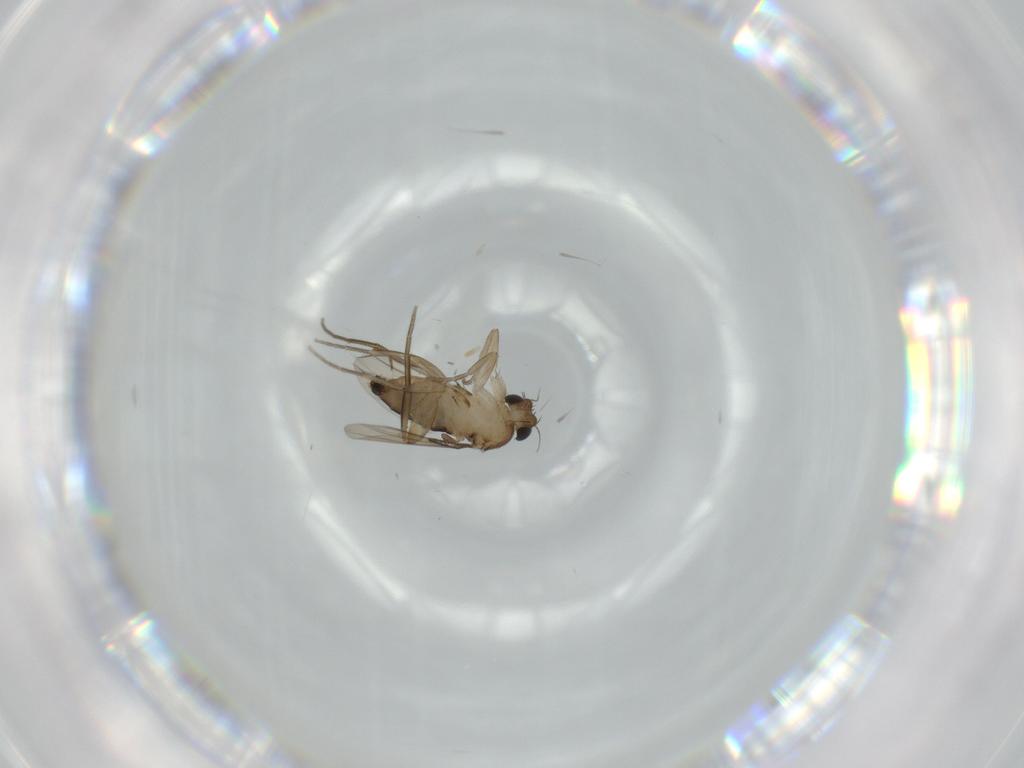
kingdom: Animalia
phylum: Arthropoda
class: Insecta
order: Diptera
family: Phoridae
